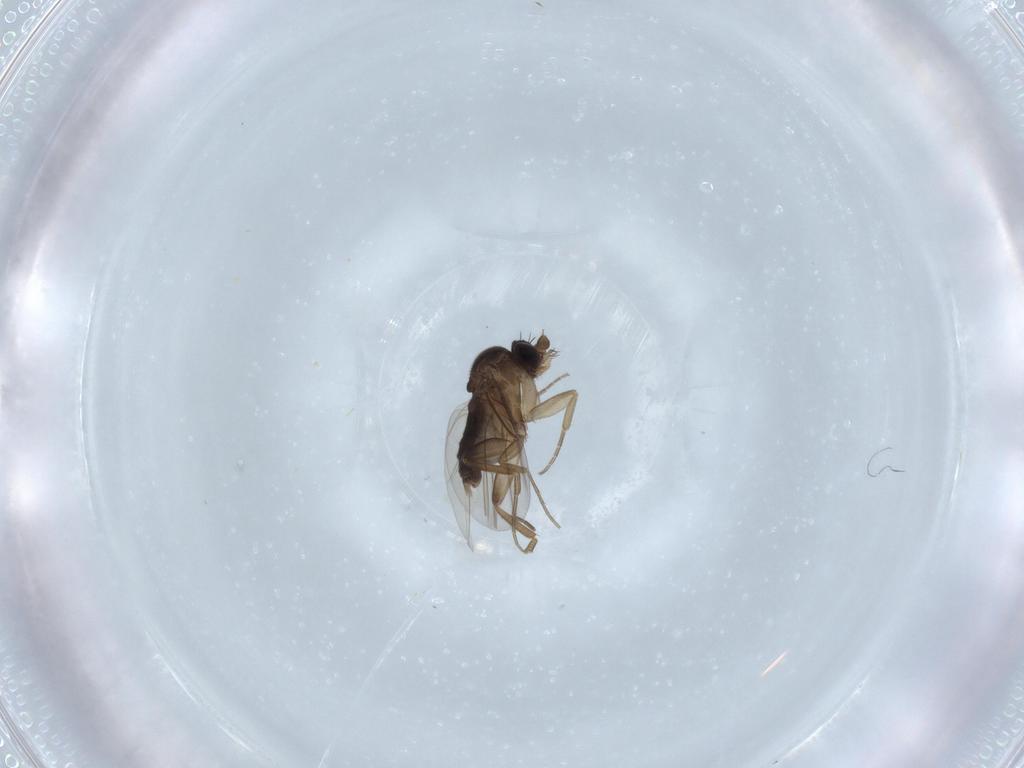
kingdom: Animalia
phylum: Arthropoda
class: Insecta
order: Diptera
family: Phoridae
